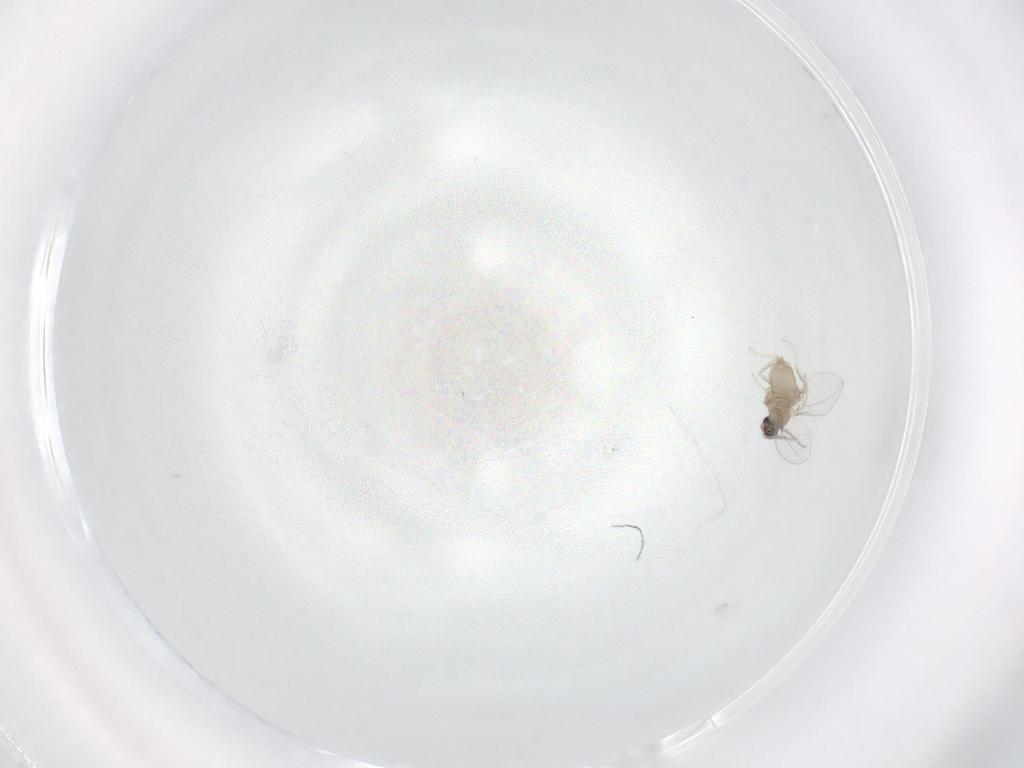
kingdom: Animalia
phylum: Arthropoda
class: Insecta
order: Diptera
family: Cecidomyiidae
